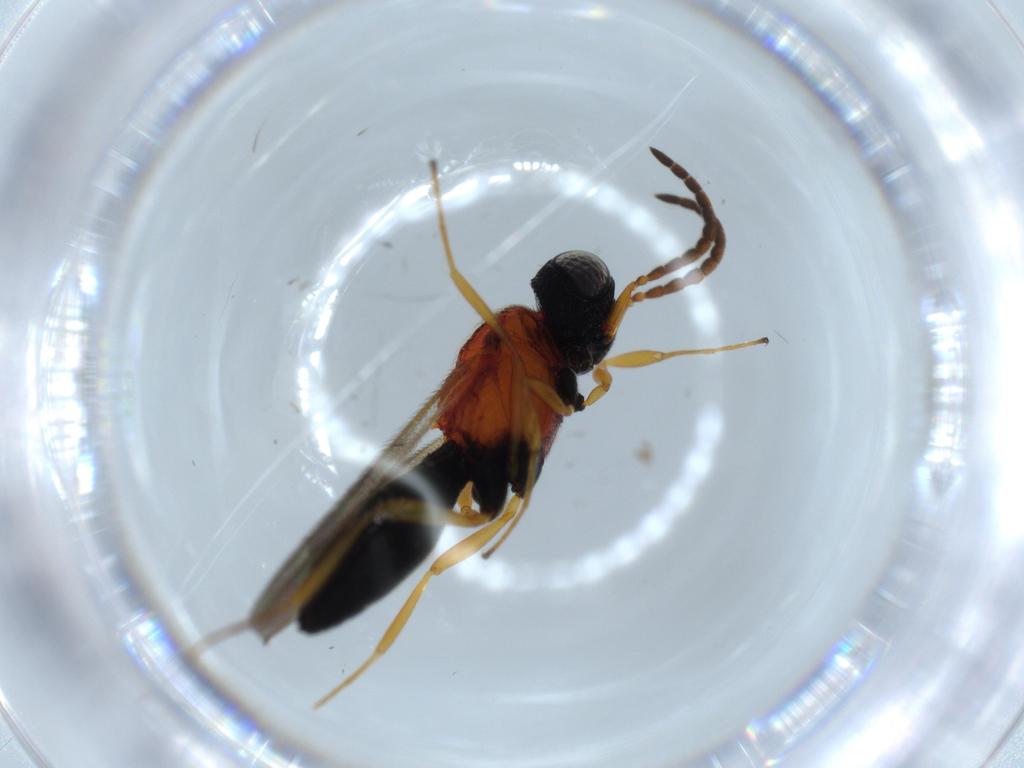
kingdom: Animalia
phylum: Arthropoda
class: Insecta
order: Hymenoptera
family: Scelionidae
